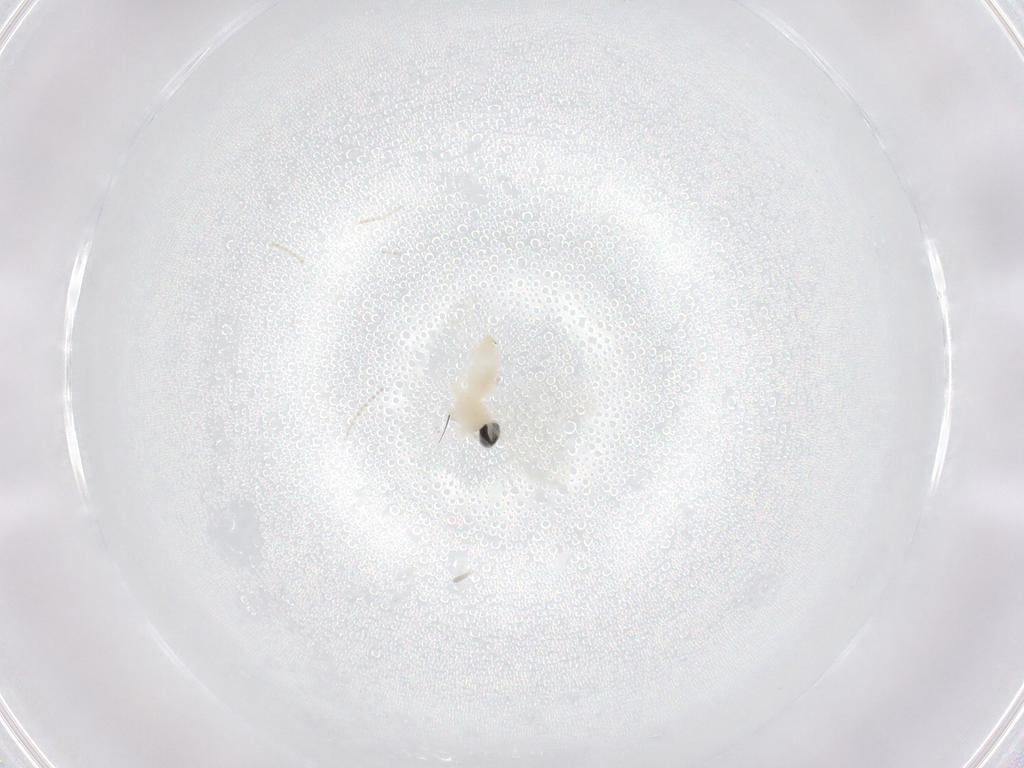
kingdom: Animalia
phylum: Arthropoda
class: Insecta
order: Diptera
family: Cecidomyiidae
